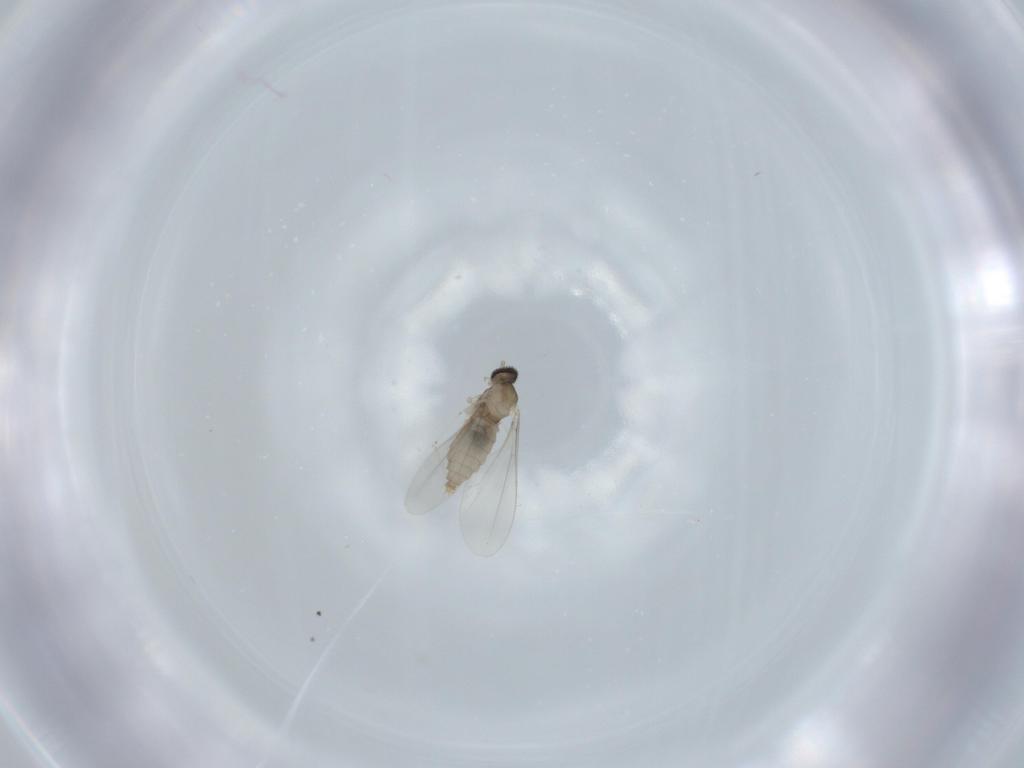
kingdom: Animalia
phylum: Arthropoda
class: Insecta
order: Diptera
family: Cecidomyiidae
